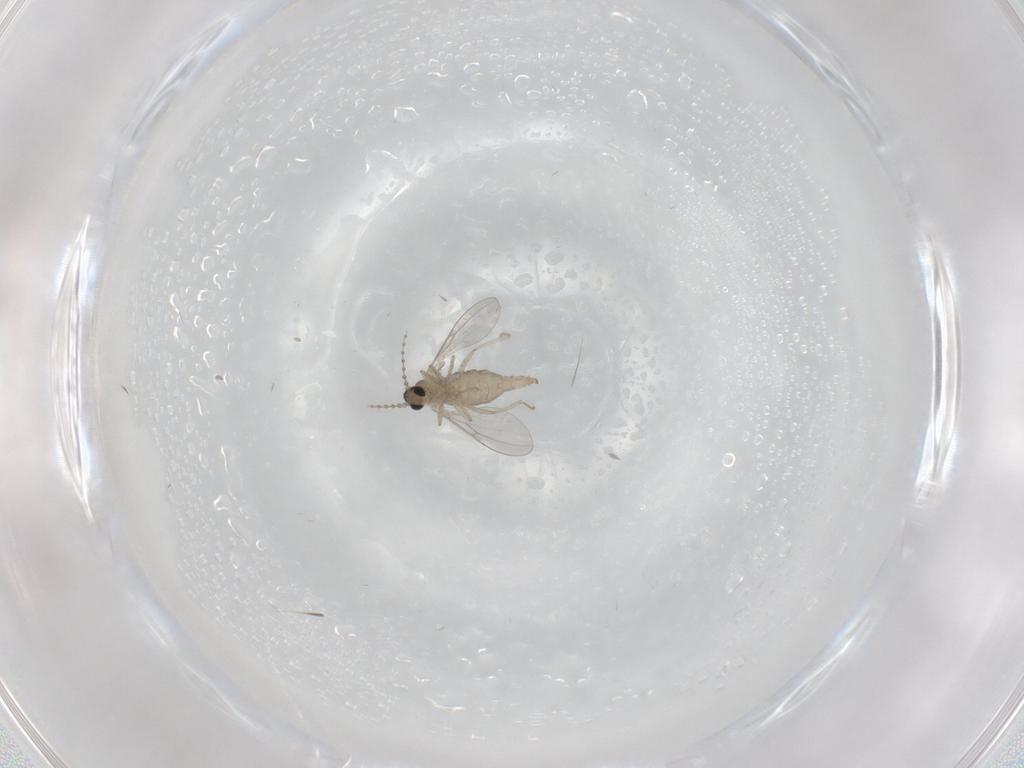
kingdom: Animalia
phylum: Arthropoda
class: Insecta
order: Diptera
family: Cecidomyiidae
